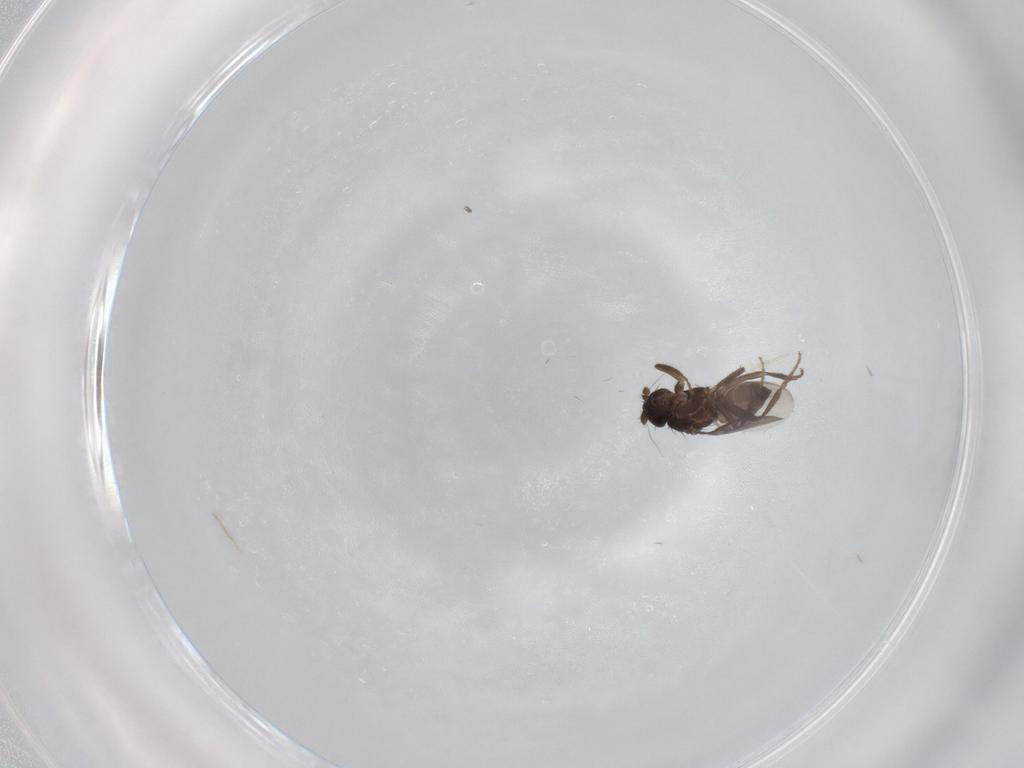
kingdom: Animalia
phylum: Arthropoda
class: Insecta
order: Diptera
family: Sphaeroceridae
